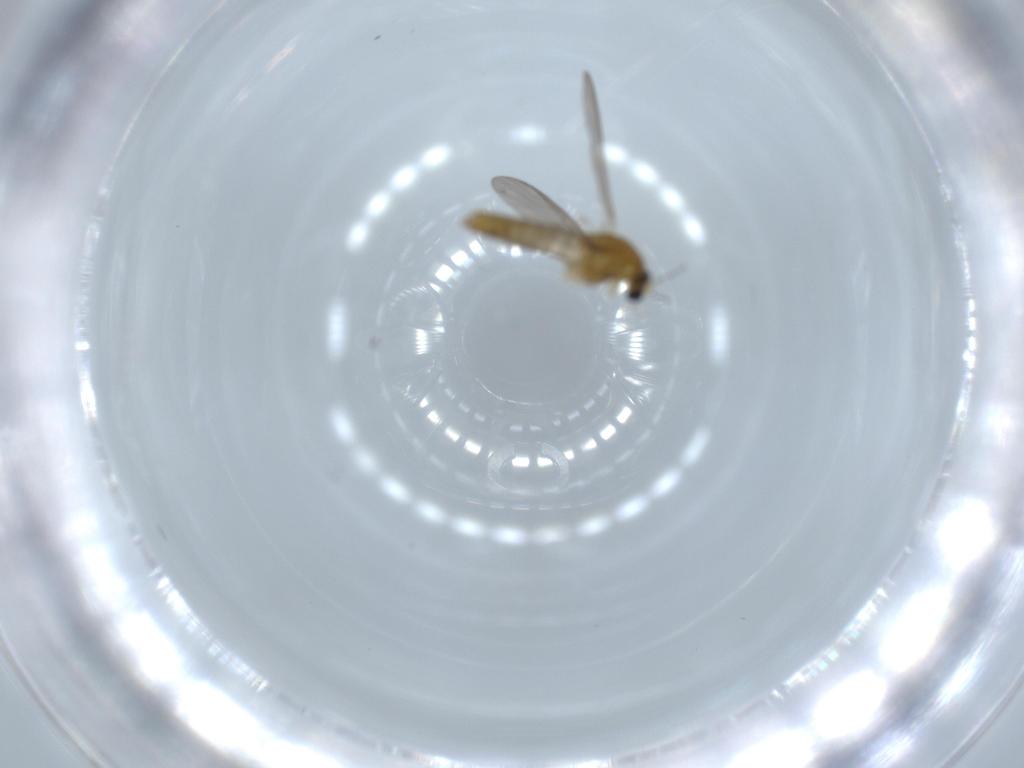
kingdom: Animalia
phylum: Arthropoda
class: Insecta
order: Diptera
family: Chironomidae
